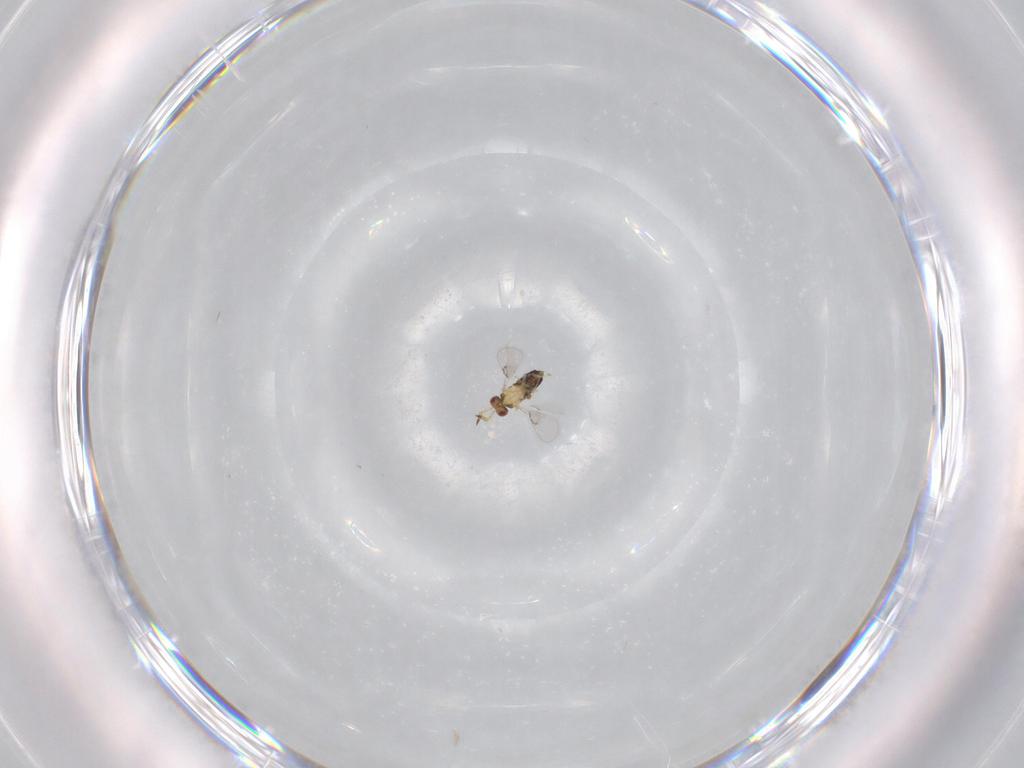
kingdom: Animalia
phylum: Arthropoda
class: Insecta
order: Hymenoptera
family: Trichogrammatidae
